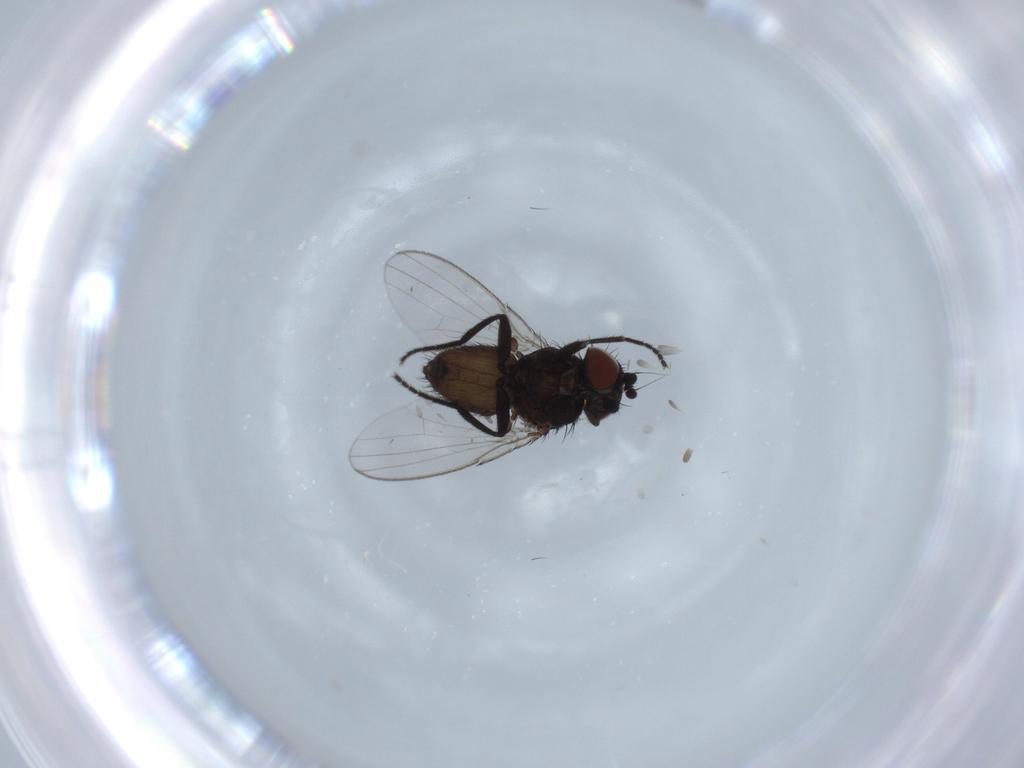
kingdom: Animalia
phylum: Arthropoda
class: Insecta
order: Diptera
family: Milichiidae
